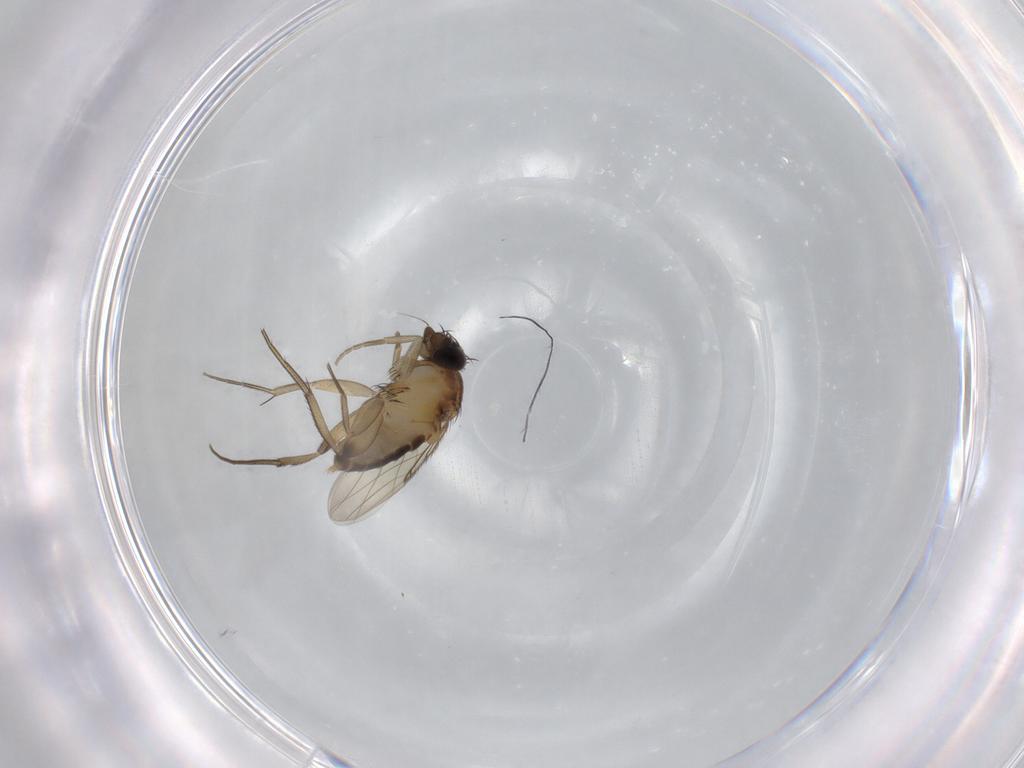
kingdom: Animalia
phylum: Arthropoda
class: Insecta
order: Diptera
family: Phoridae
